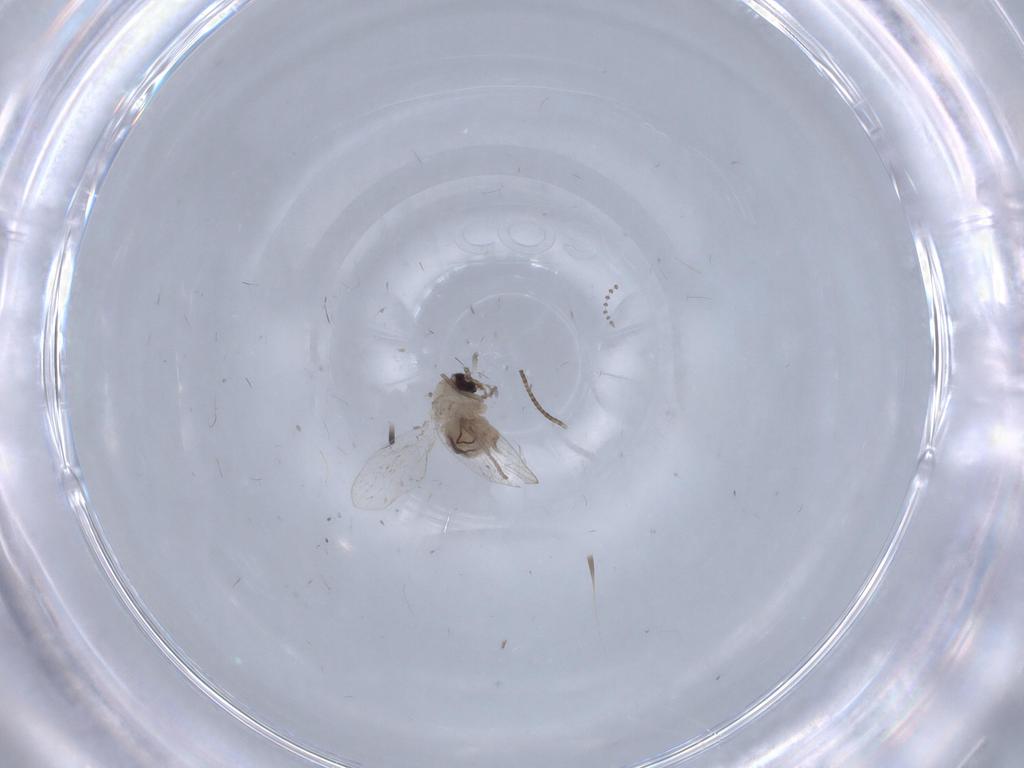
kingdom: Animalia
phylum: Arthropoda
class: Insecta
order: Diptera
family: Psychodidae
